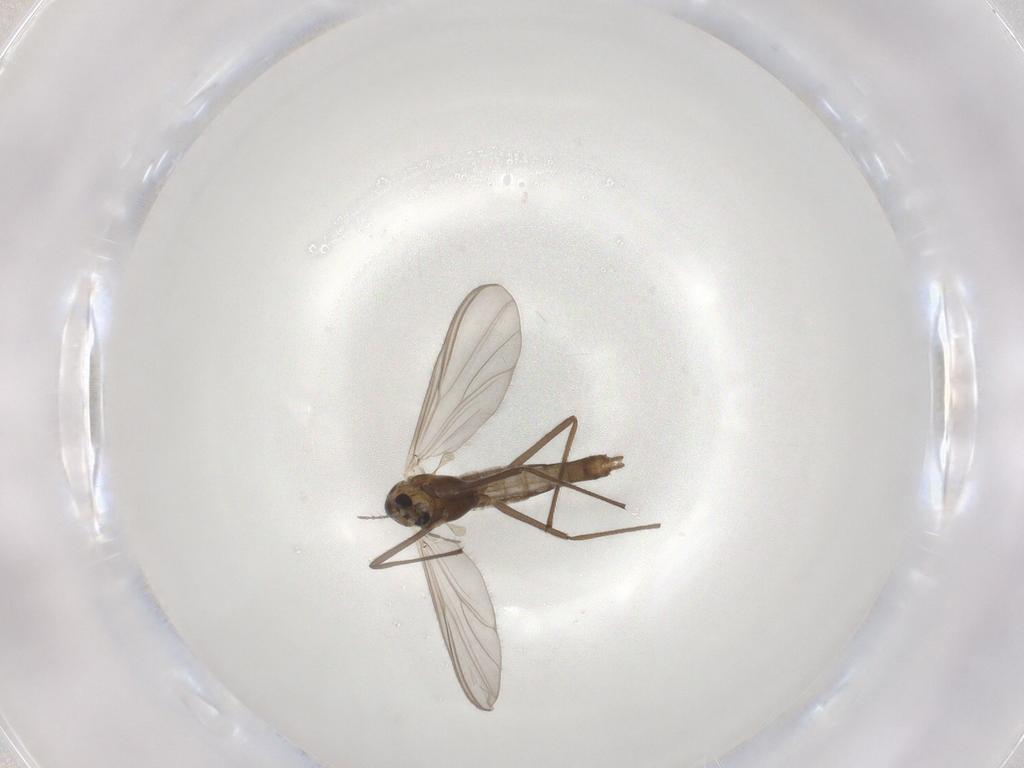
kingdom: Animalia
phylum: Arthropoda
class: Insecta
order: Diptera
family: Chironomidae
